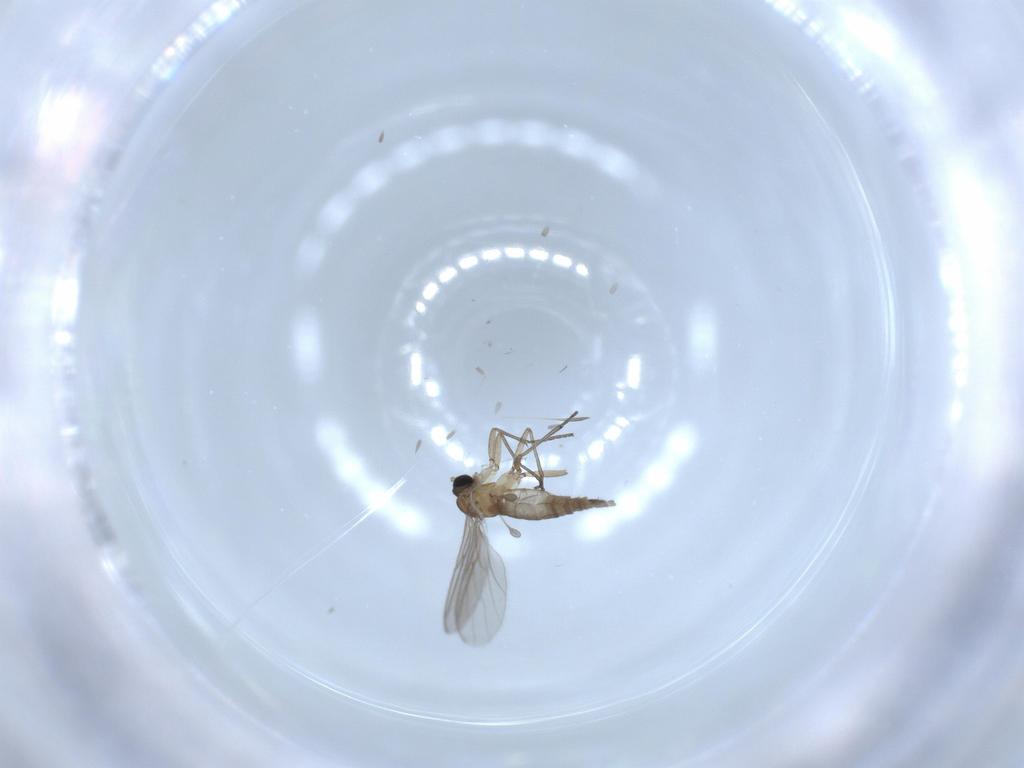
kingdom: Animalia
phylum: Arthropoda
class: Insecta
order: Diptera
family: Sciaridae
